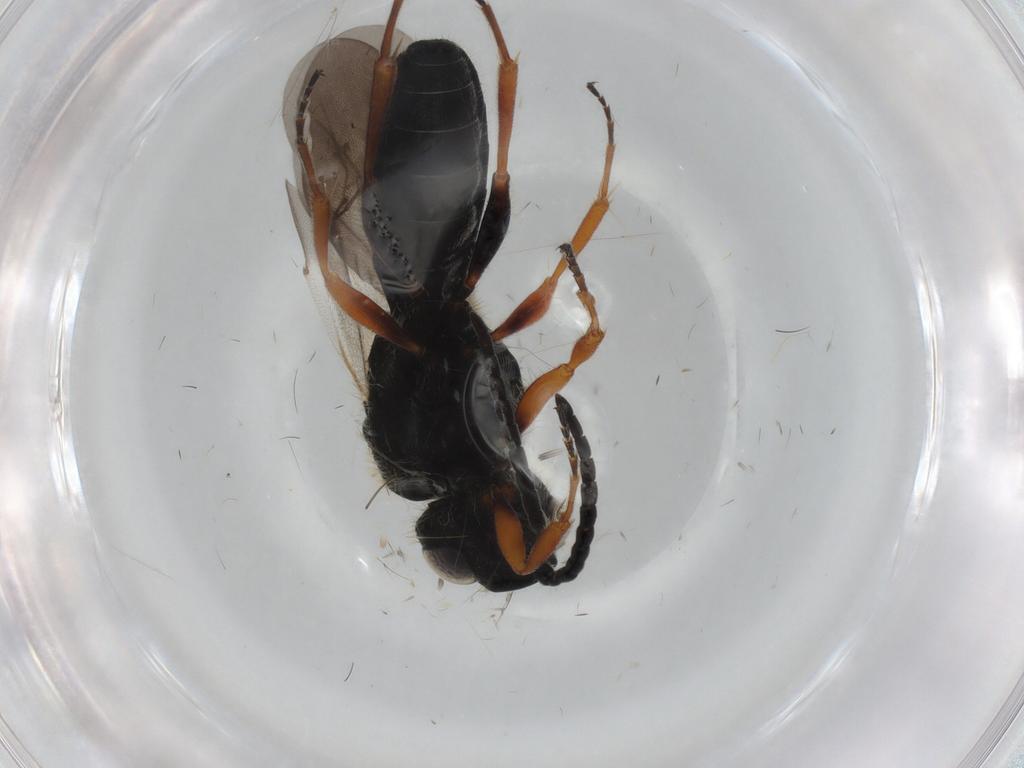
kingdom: Animalia
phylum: Arthropoda
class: Insecta
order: Hymenoptera
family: Scelionidae
